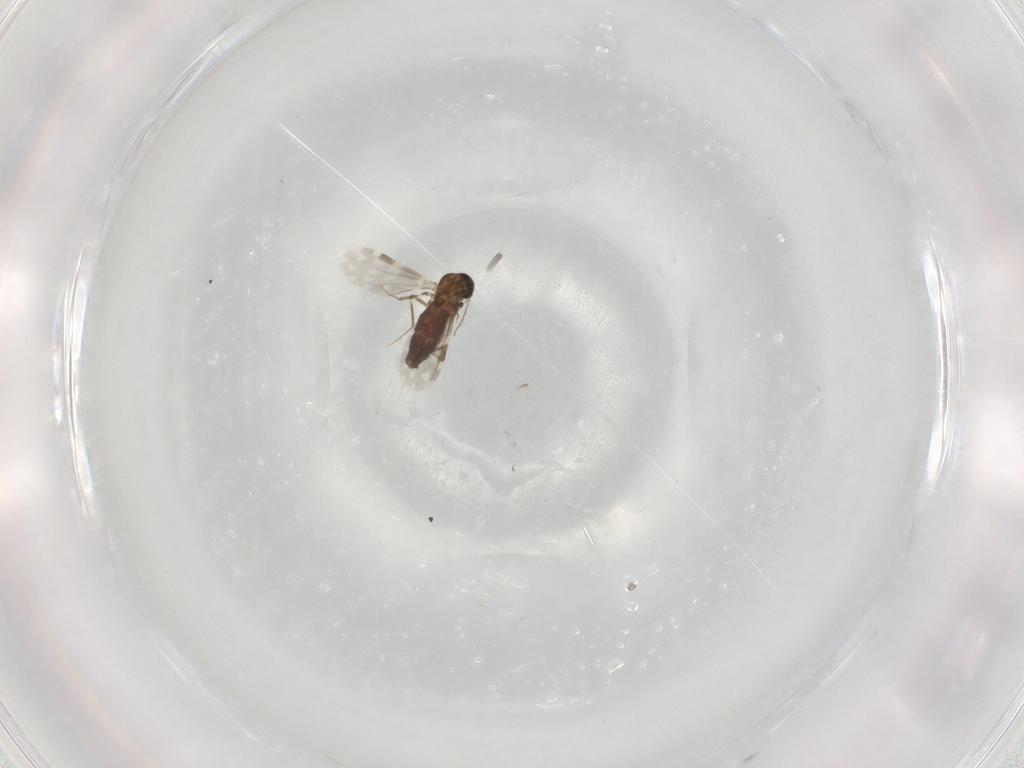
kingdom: Animalia
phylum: Arthropoda
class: Insecta
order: Diptera
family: Ceratopogonidae
